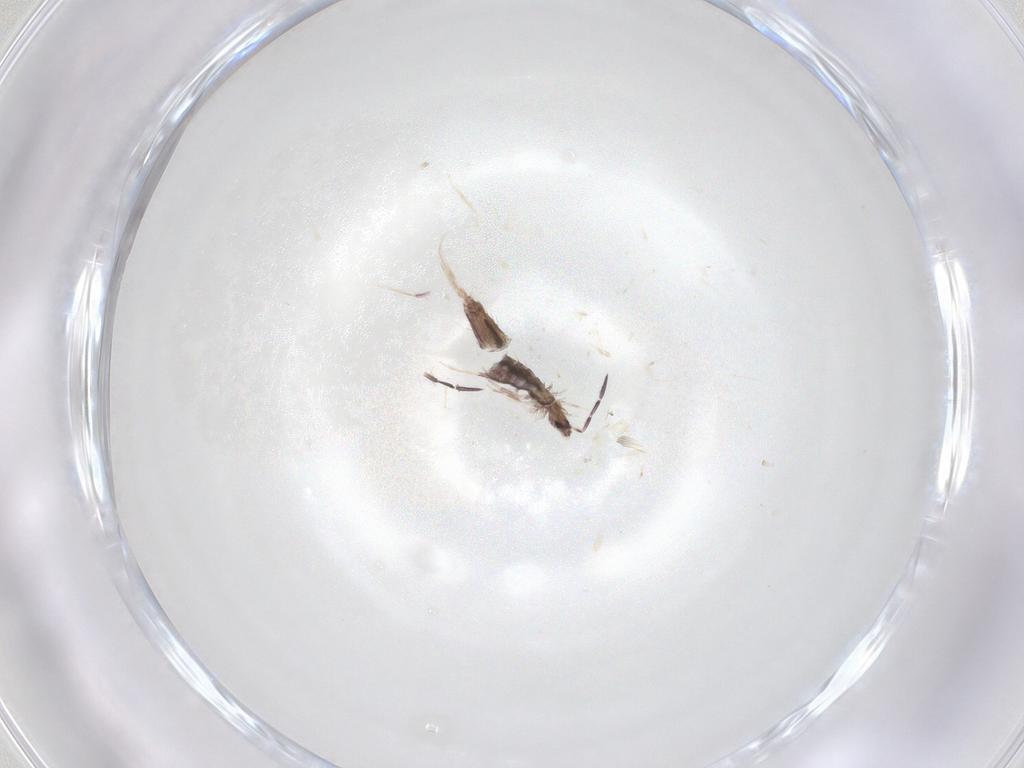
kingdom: Animalia
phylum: Arthropoda
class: Collembola
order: Poduromorpha
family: Hypogastruridae
